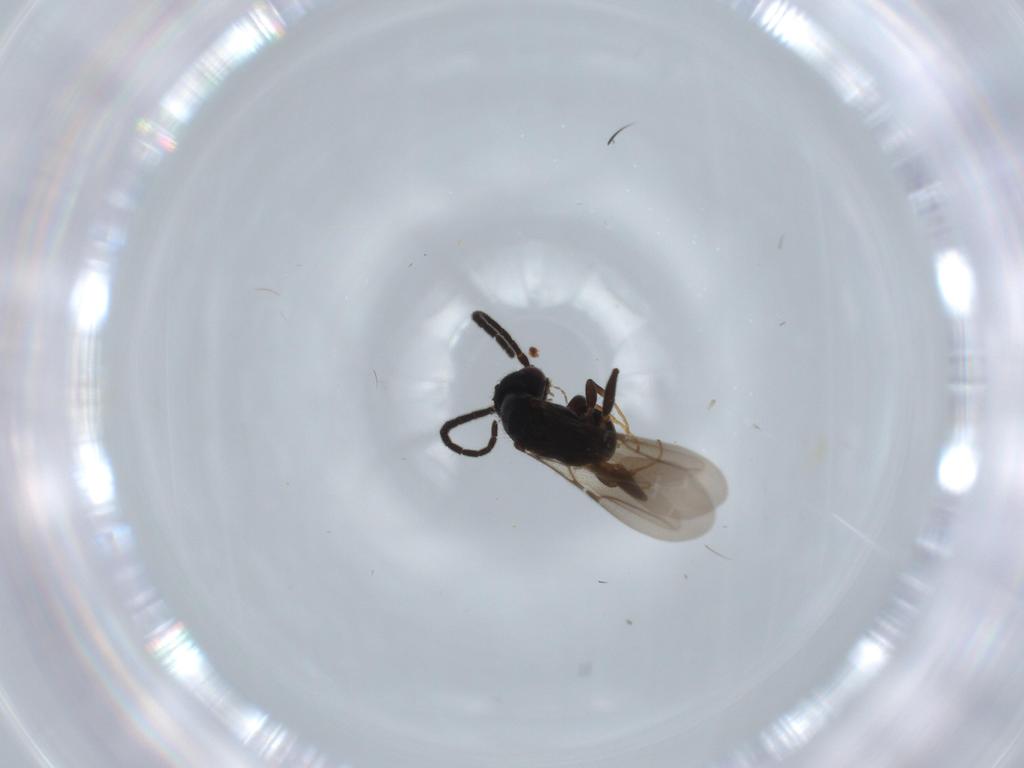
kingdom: Animalia
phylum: Arthropoda
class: Insecta
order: Hymenoptera
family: Bethylidae
